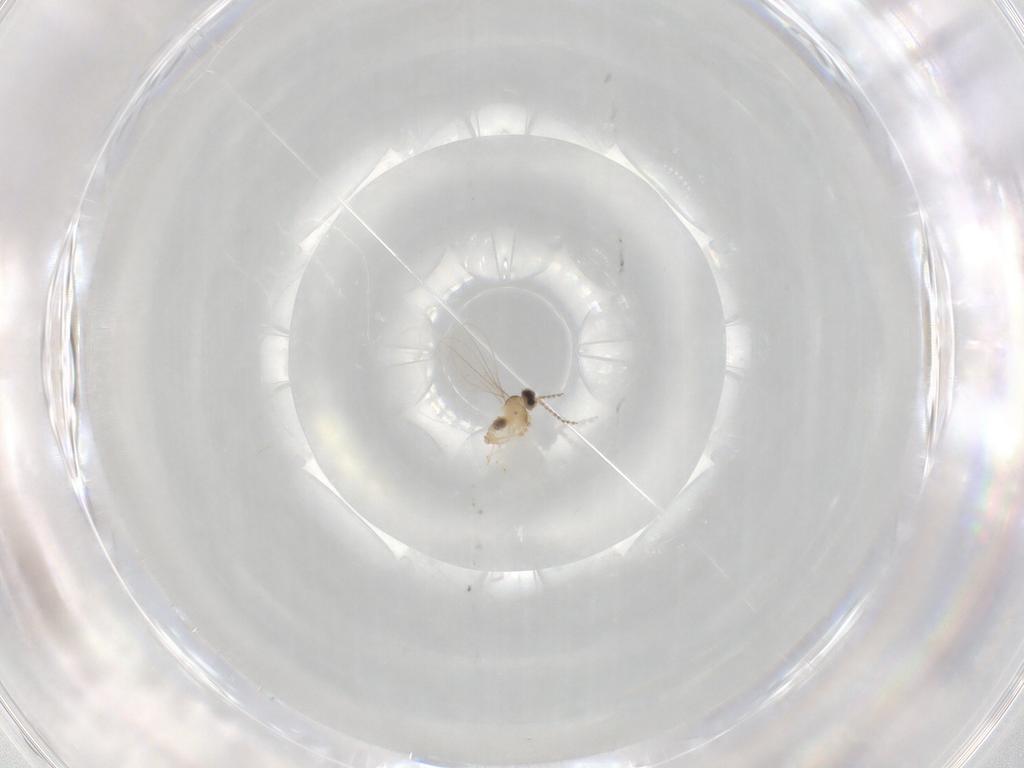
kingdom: Animalia
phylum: Arthropoda
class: Insecta
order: Diptera
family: Cecidomyiidae
